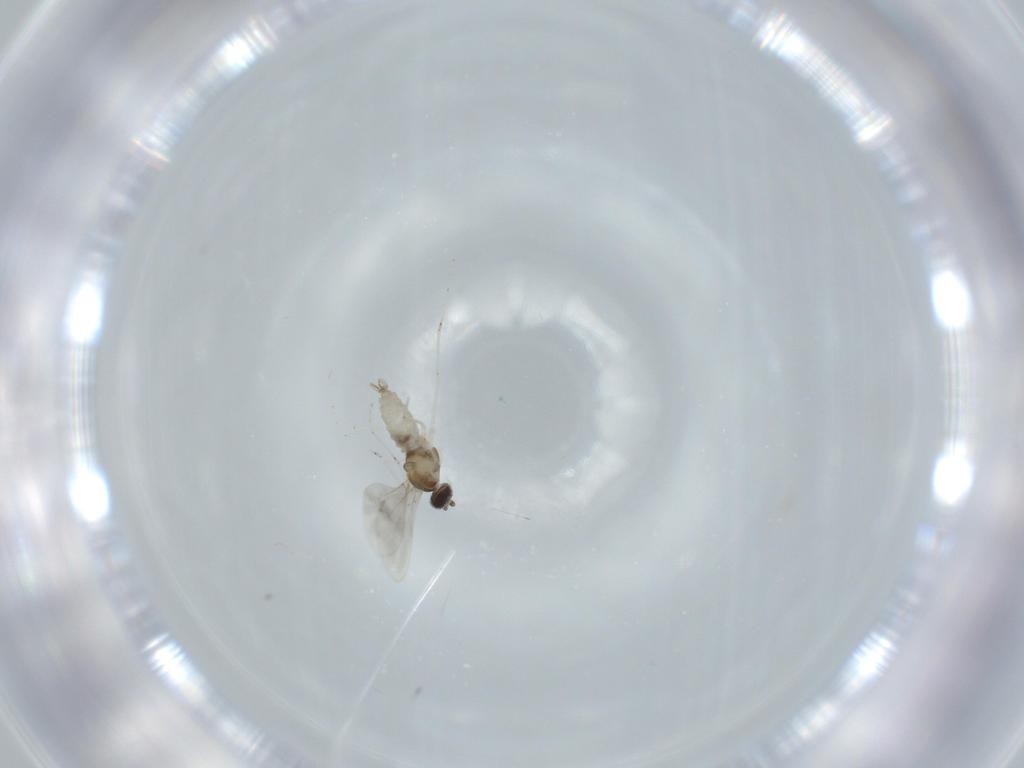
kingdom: Animalia
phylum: Arthropoda
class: Insecta
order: Diptera
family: Cecidomyiidae
